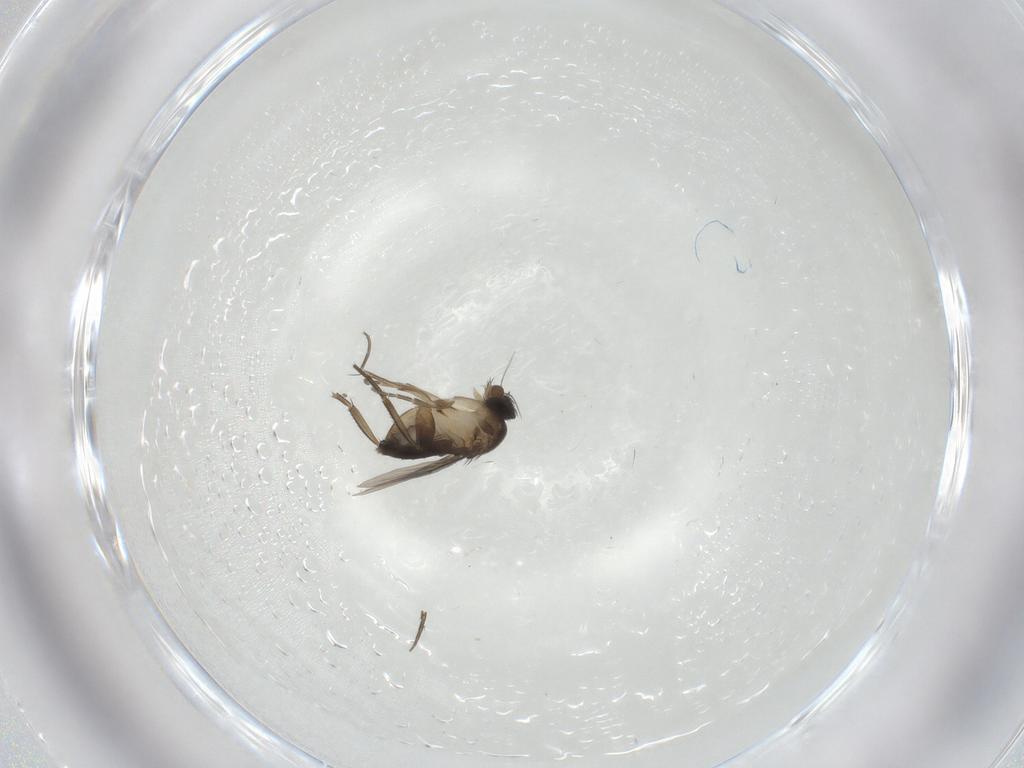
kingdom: Animalia
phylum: Arthropoda
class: Insecta
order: Diptera
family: Phoridae
